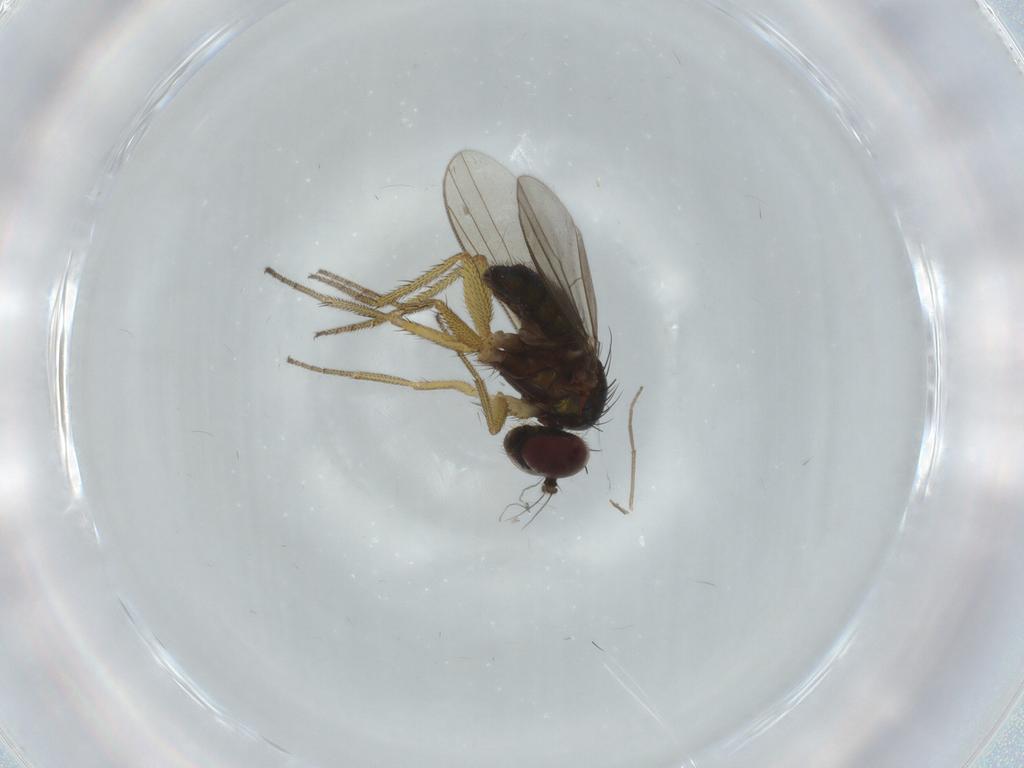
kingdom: Animalia
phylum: Arthropoda
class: Insecta
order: Diptera
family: Dolichopodidae
